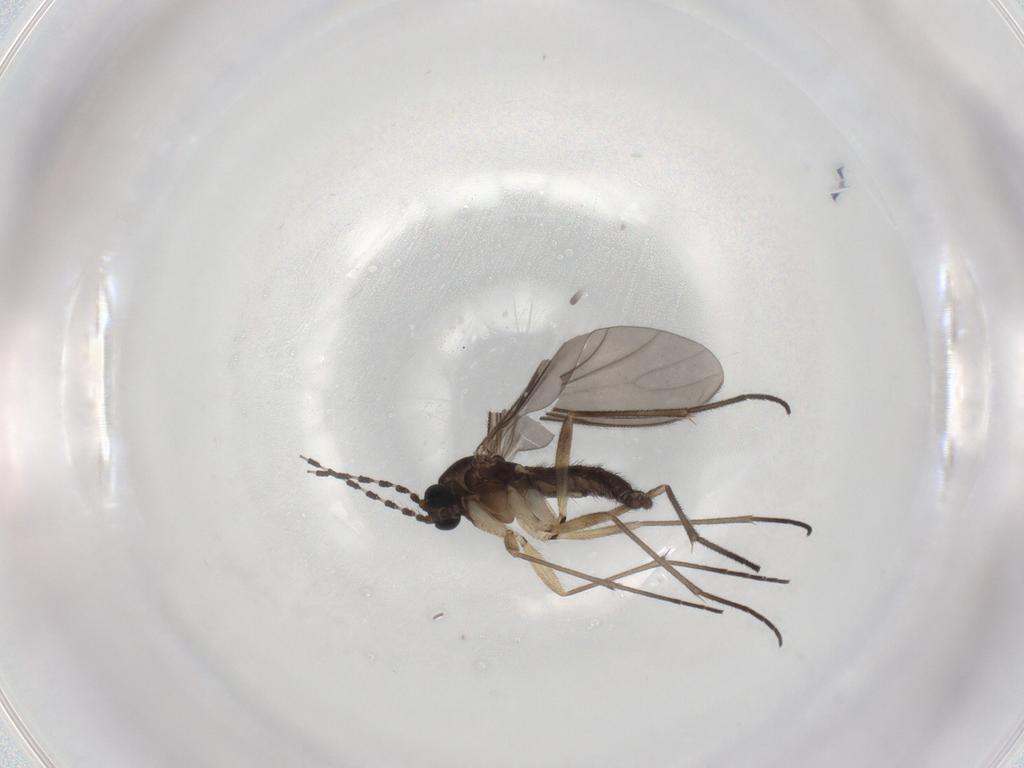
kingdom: Animalia
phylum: Arthropoda
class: Insecta
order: Diptera
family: Sciaridae
